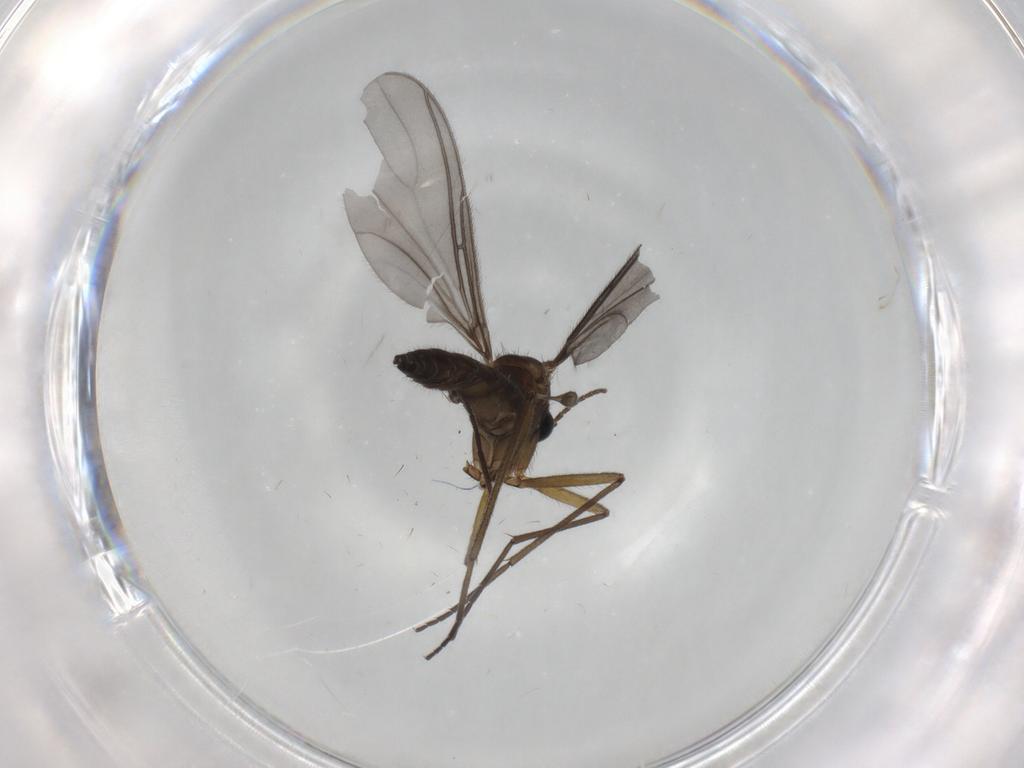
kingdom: Animalia
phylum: Arthropoda
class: Insecta
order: Diptera
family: Sciaridae
